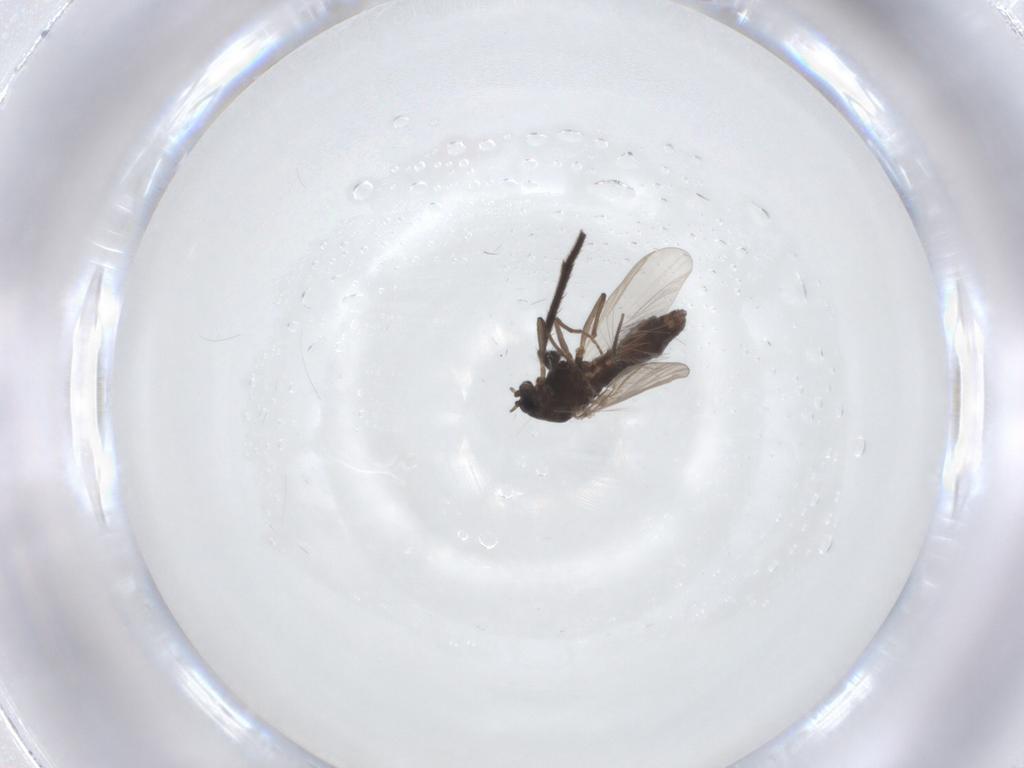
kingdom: Animalia
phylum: Arthropoda
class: Insecta
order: Diptera
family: Chironomidae
